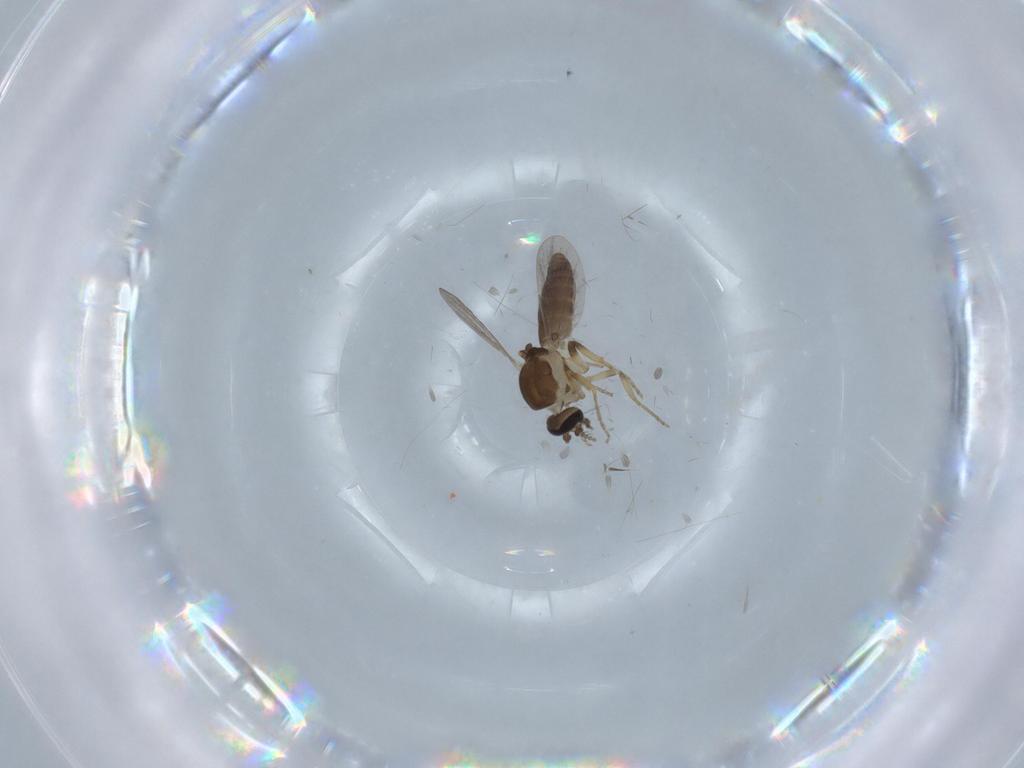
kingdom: Animalia
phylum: Arthropoda
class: Insecta
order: Diptera
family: Ceratopogonidae
